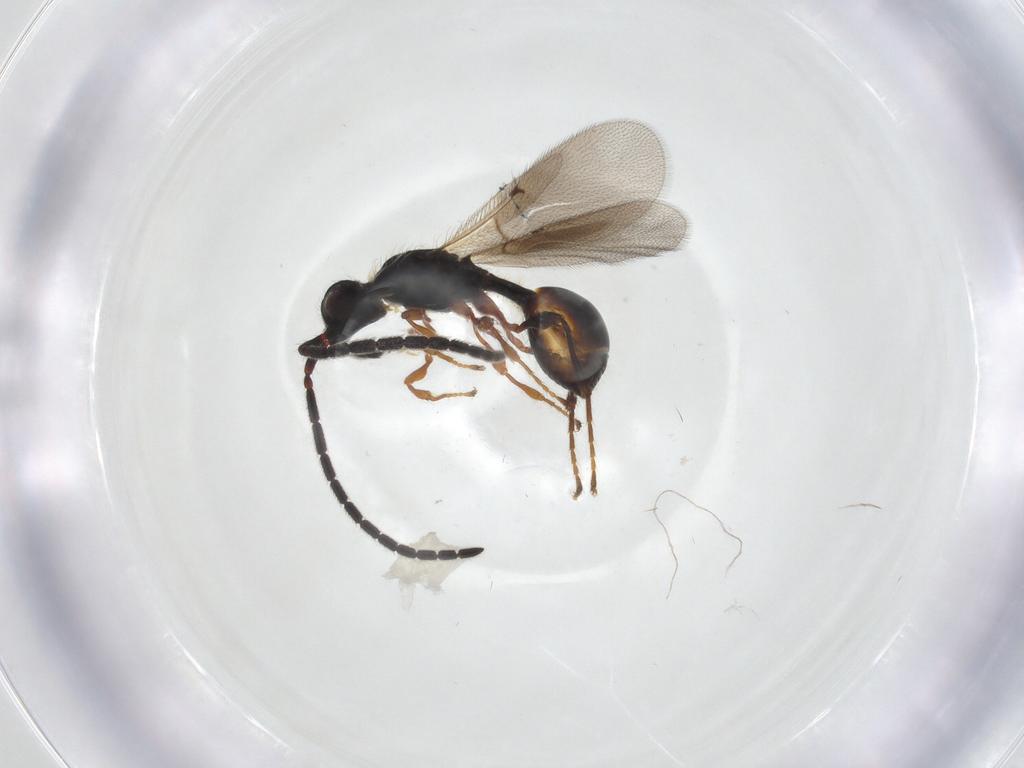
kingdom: Animalia
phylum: Arthropoda
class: Insecta
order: Hymenoptera
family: Diapriidae
